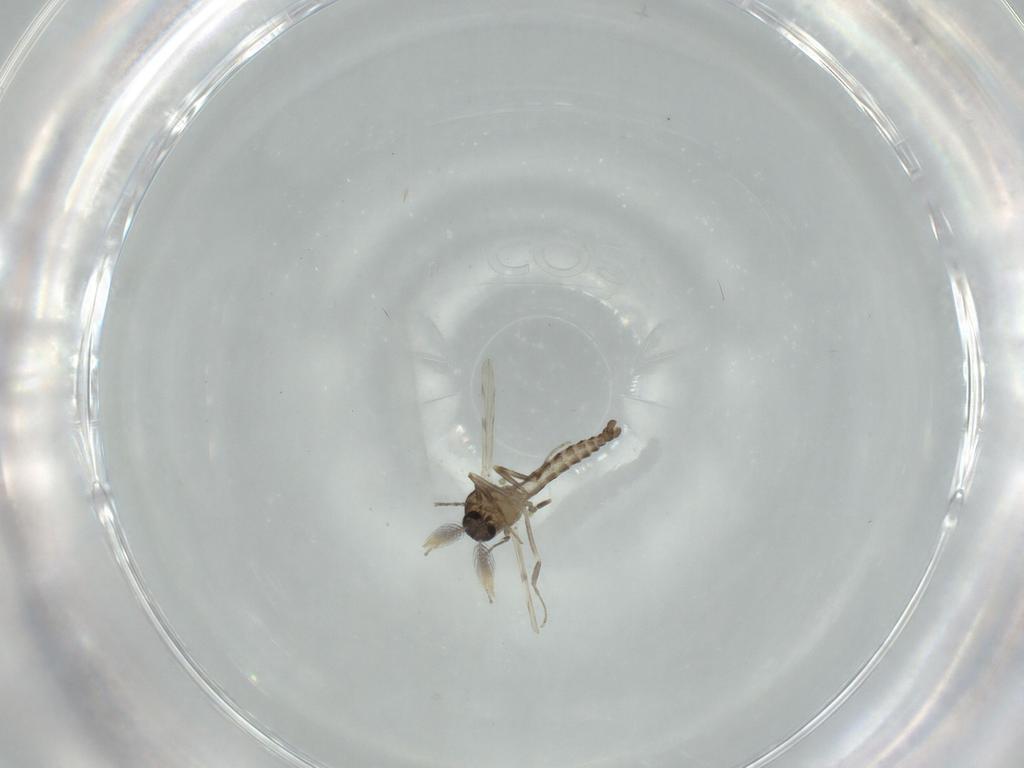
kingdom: Animalia
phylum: Arthropoda
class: Insecta
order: Diptera
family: Ceratopogonidae
